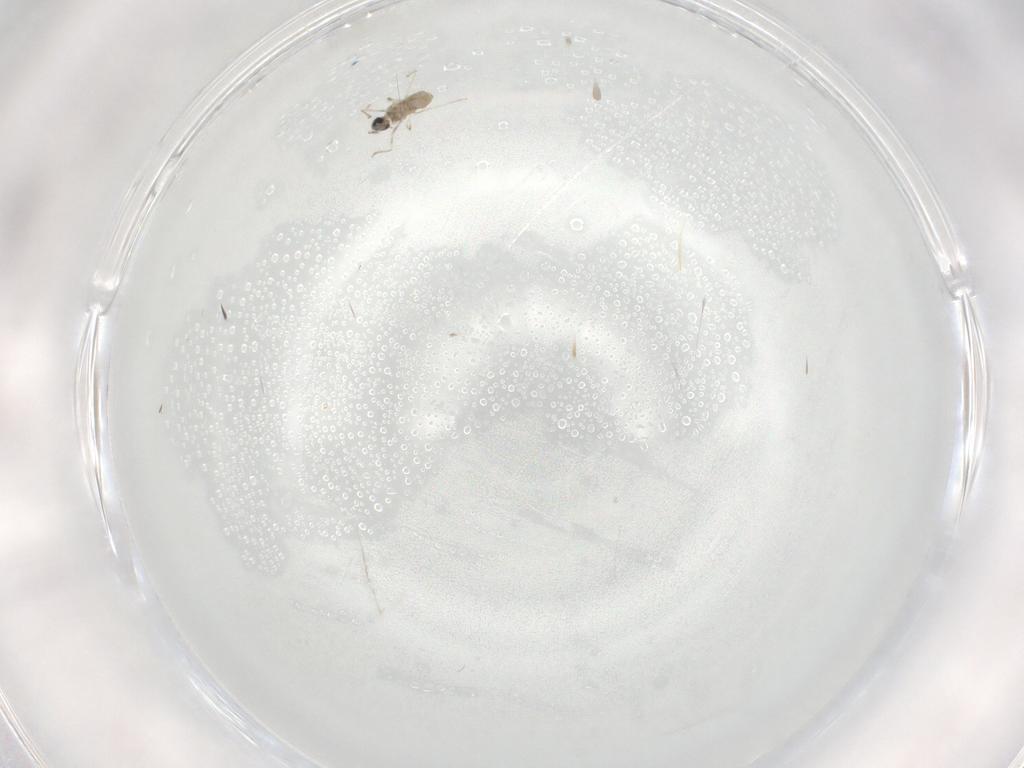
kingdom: Animalia
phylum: Arthropoda
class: Insecta
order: Diptera
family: Cecidomyiidae
